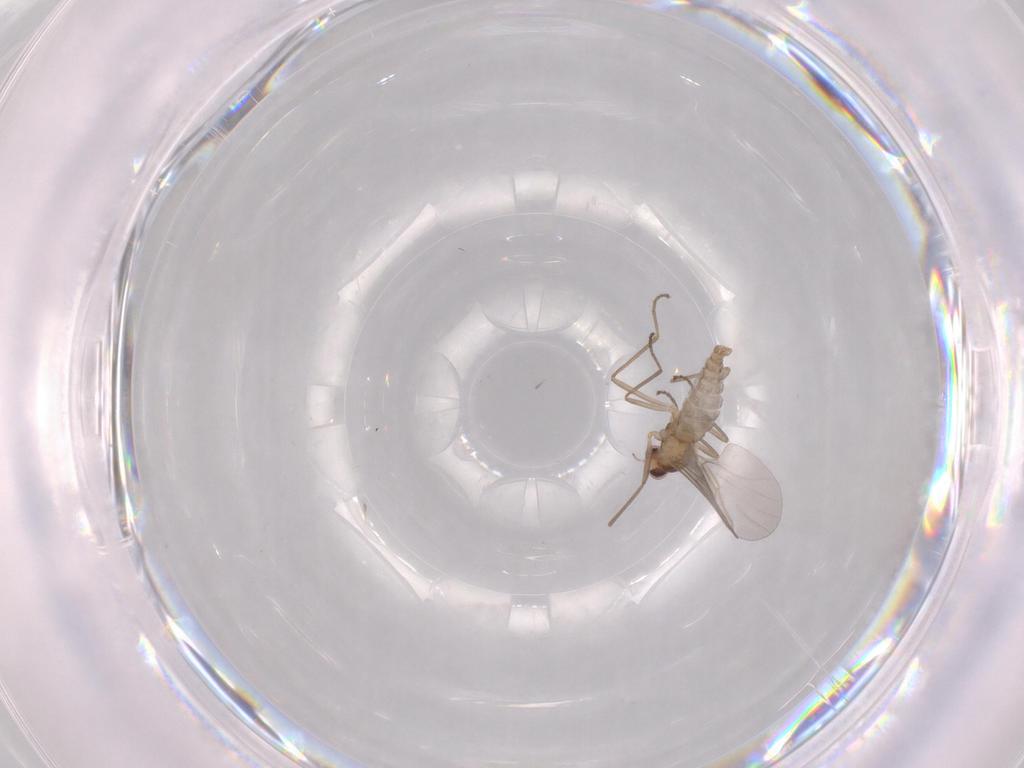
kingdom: Animalia
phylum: Arthropoda
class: Insecta
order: Diptera
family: Cecidomyiidae
